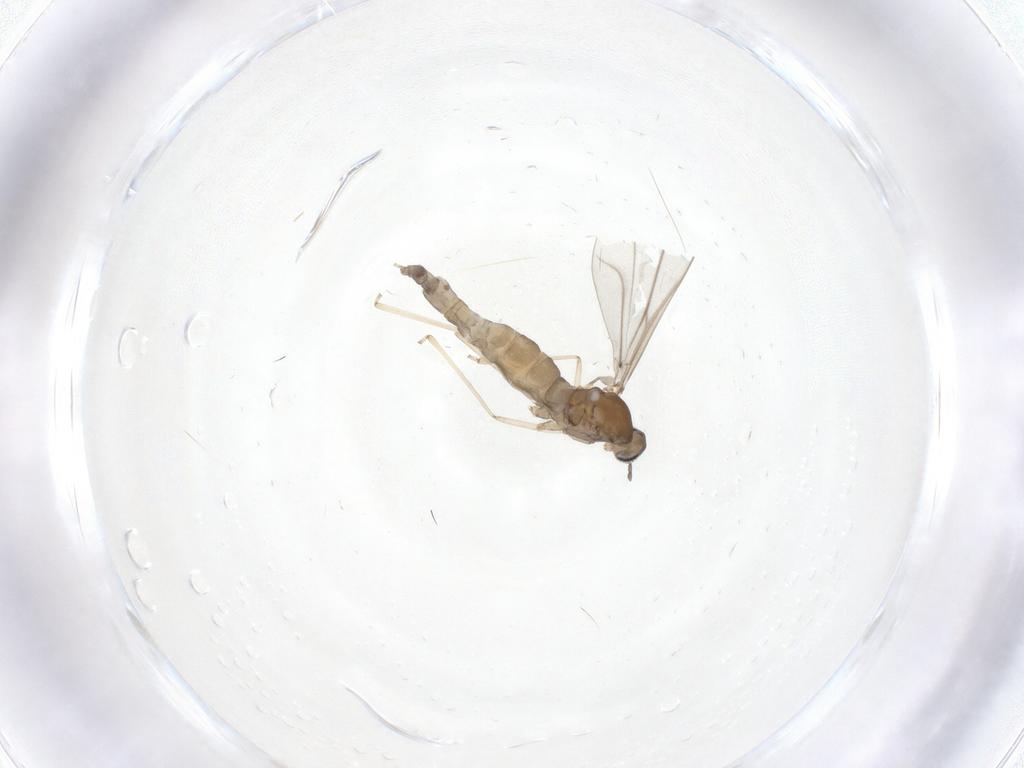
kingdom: Animalia
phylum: Arthropoda
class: Insecta
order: Diptera
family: Cecidomyiidae
